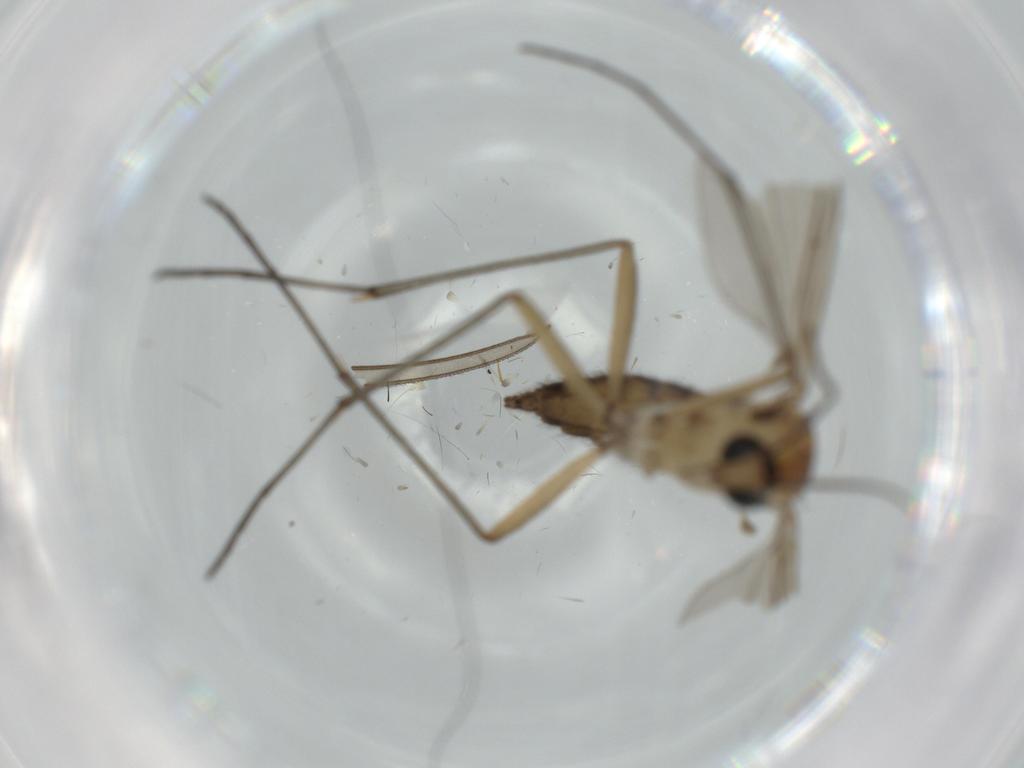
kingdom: Animalia
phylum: Arthropoda
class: Insecta
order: Diptera
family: Sciaridae
